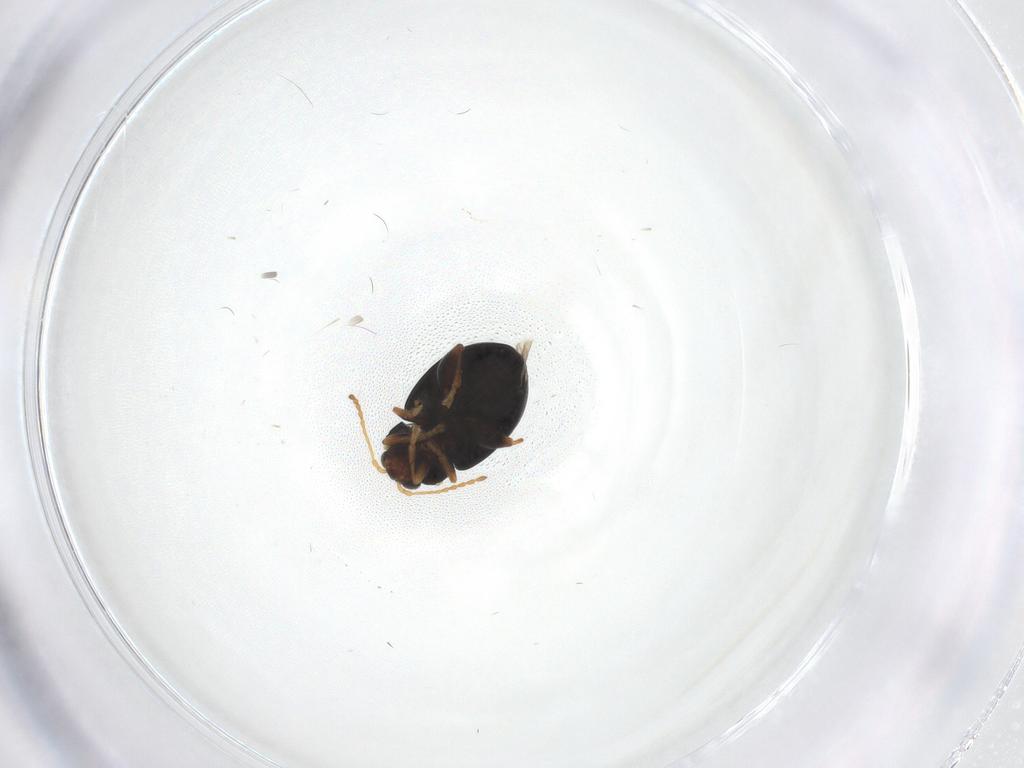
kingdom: Animalia
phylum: Arthropoda
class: Insecta
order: Coleoptera
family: Chrysomelidae
